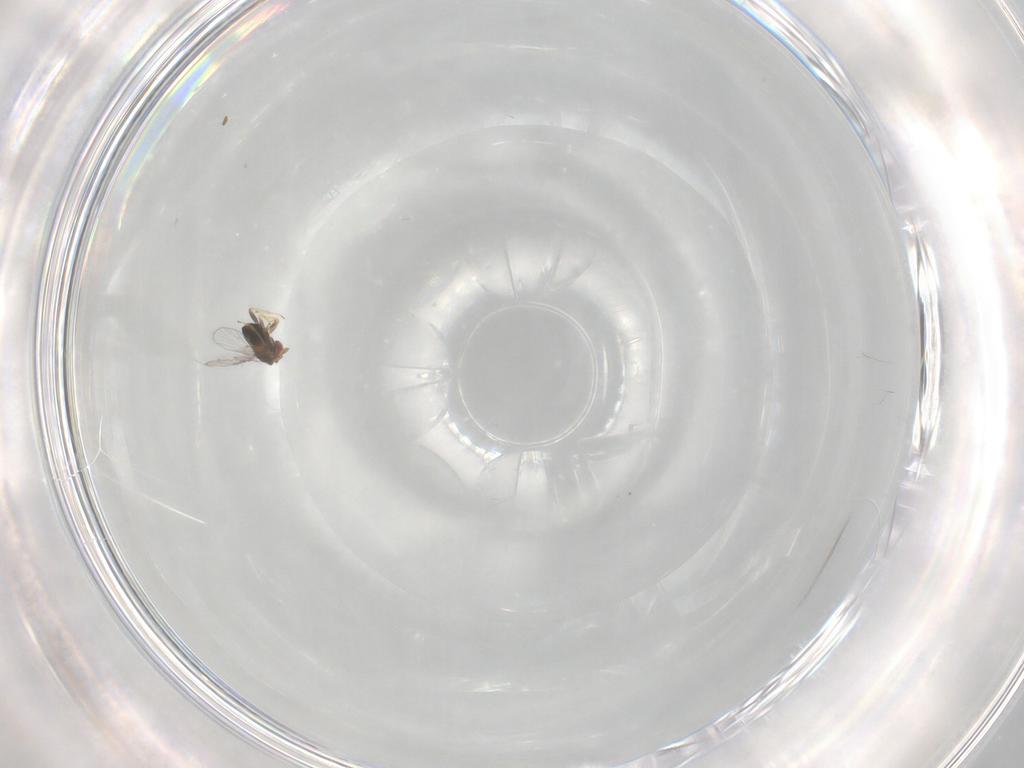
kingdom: Animalia
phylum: Arthropoda
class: Insecta
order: Hymenoptera
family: Trichogrammatidae
